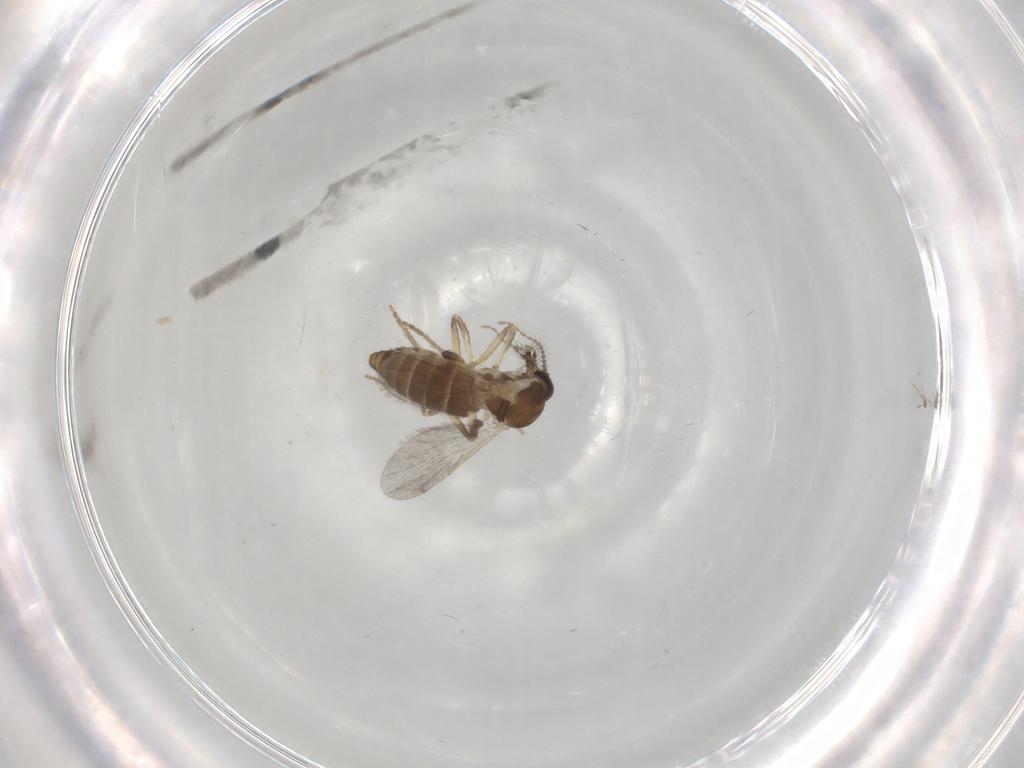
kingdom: Animalia
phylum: Arthropoda
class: Insecta
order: Diptera
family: Ceratopogonidae
